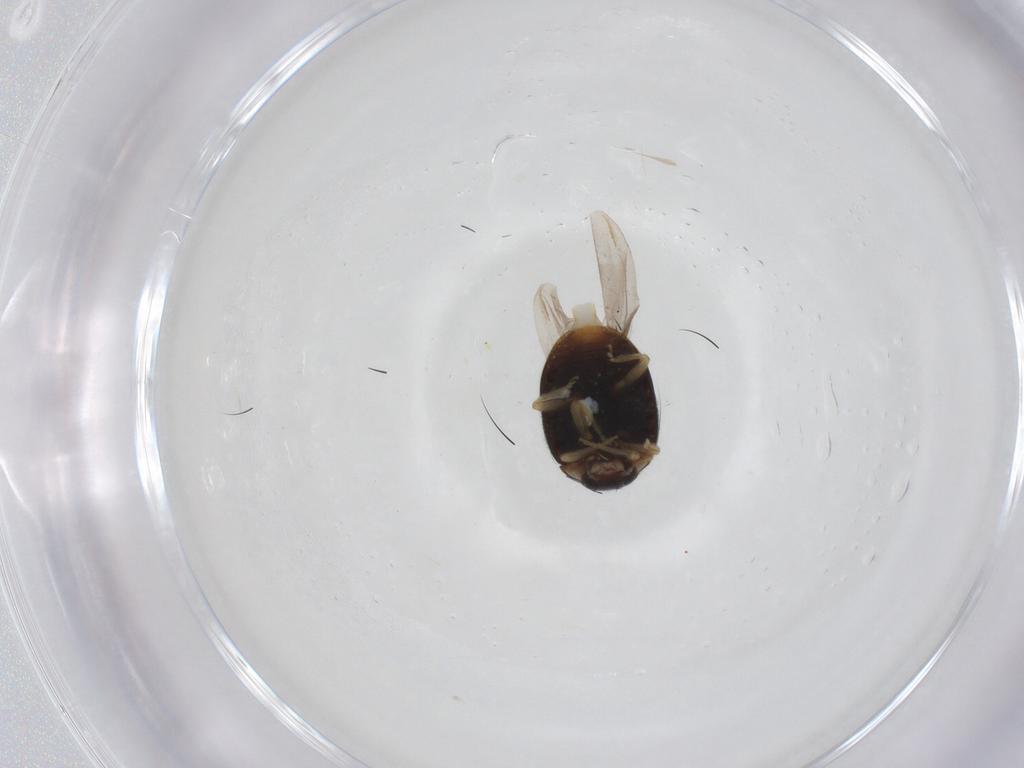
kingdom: Animalia
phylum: Arthropoda
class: Insecta
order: Coleoptera
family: Coccinellidae
